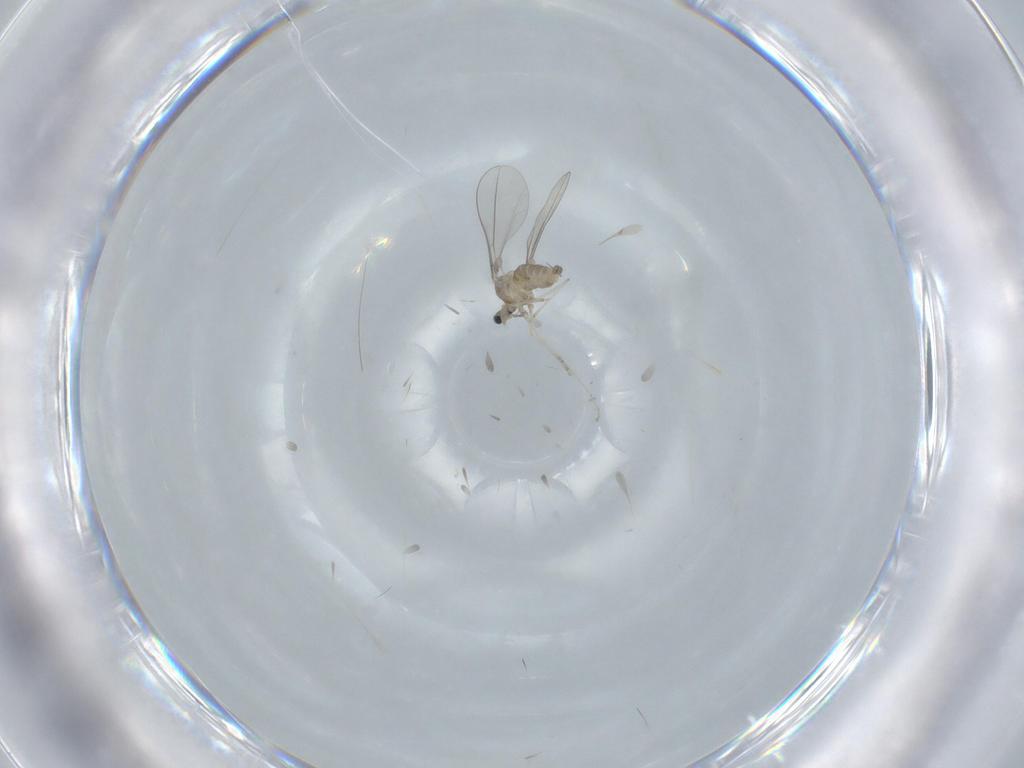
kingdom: Animalia
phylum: Arthropoda
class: Insecta
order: Diptera
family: Cecidomyiidae
